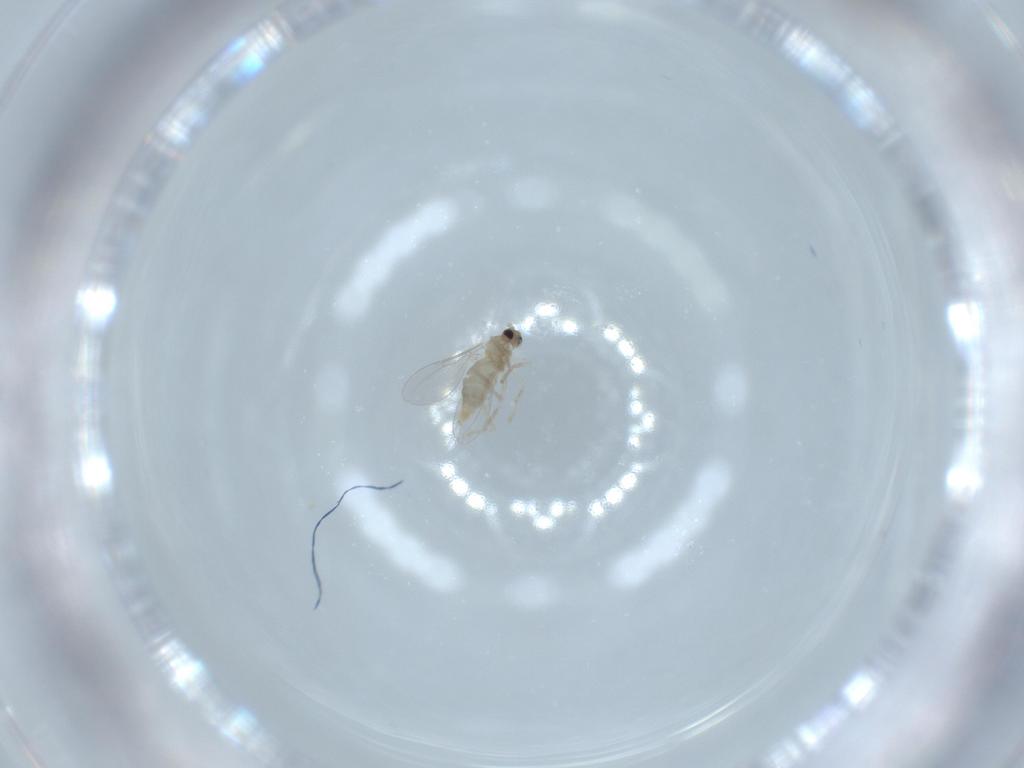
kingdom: Animalia
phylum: Arthropoda
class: Insecta
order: Diptera
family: Cecidomyiidae
